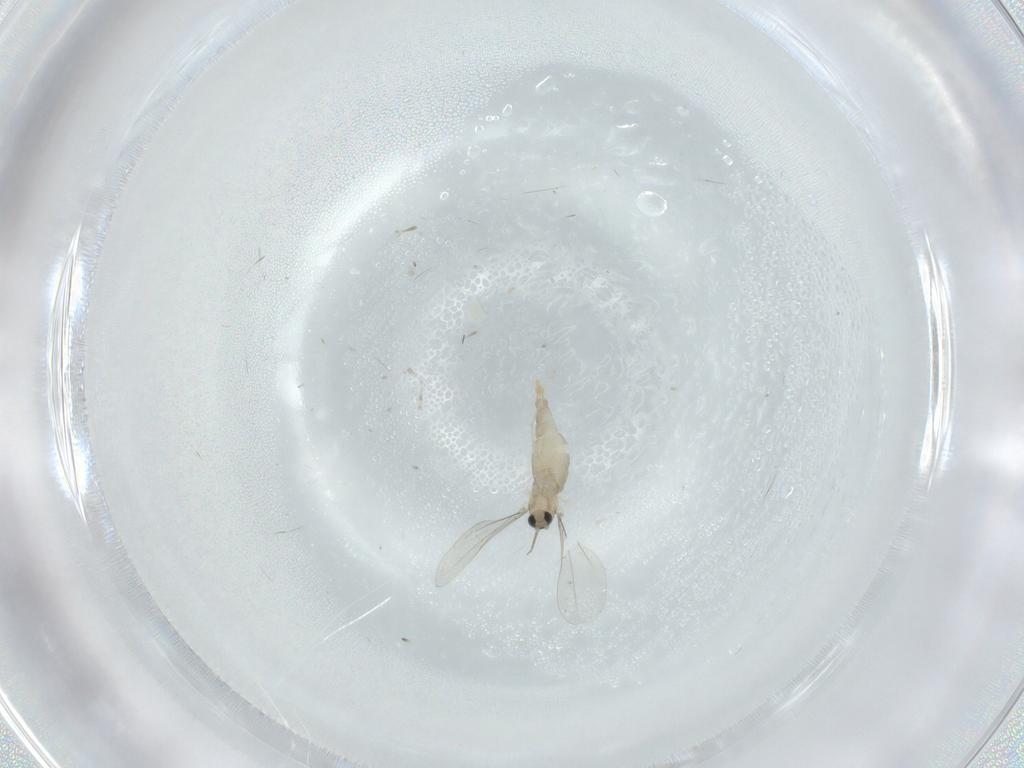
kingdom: Animalia
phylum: Arthropoda
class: Insecta
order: Diptera
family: Cecidomyiidae
